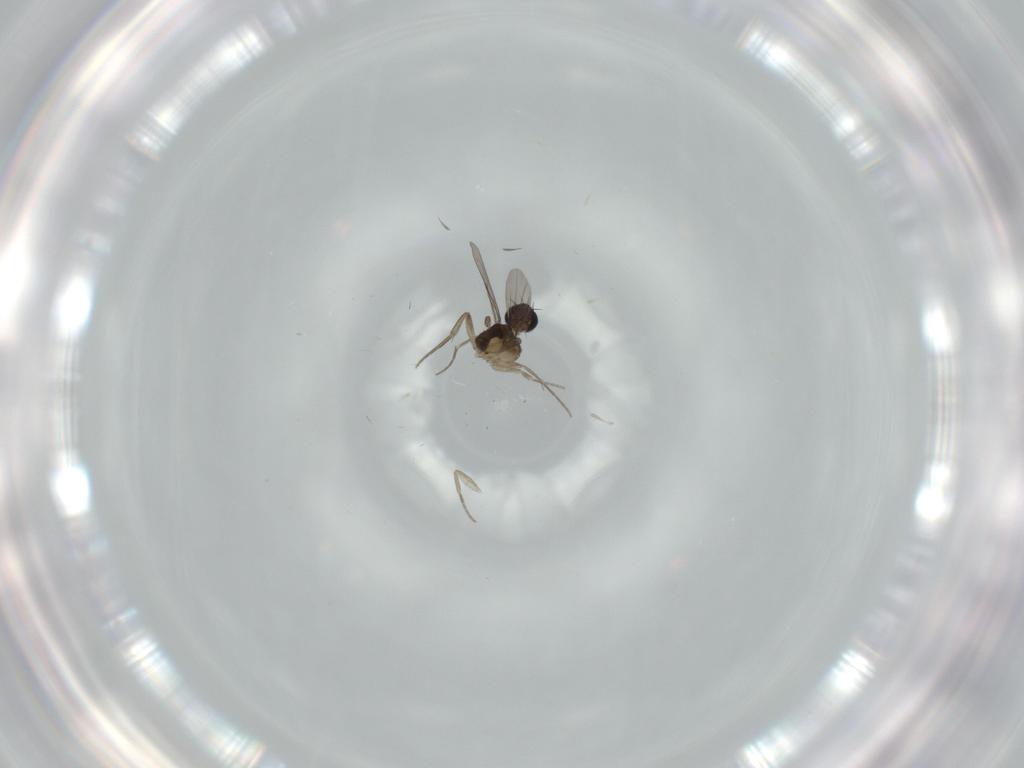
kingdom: Animalia
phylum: Arthropoda
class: Insecta
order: Diptera
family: Phoridae
